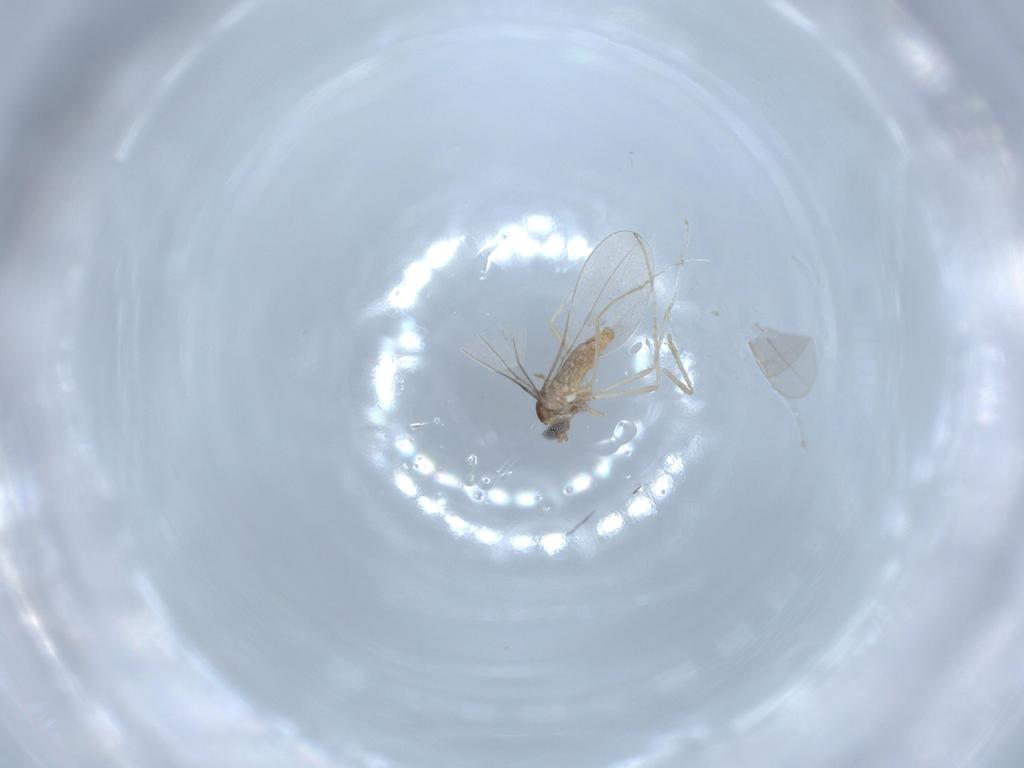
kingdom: Animalia
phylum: Arthropoda
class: Insecta
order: Diptera
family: Cecidomyiidae
